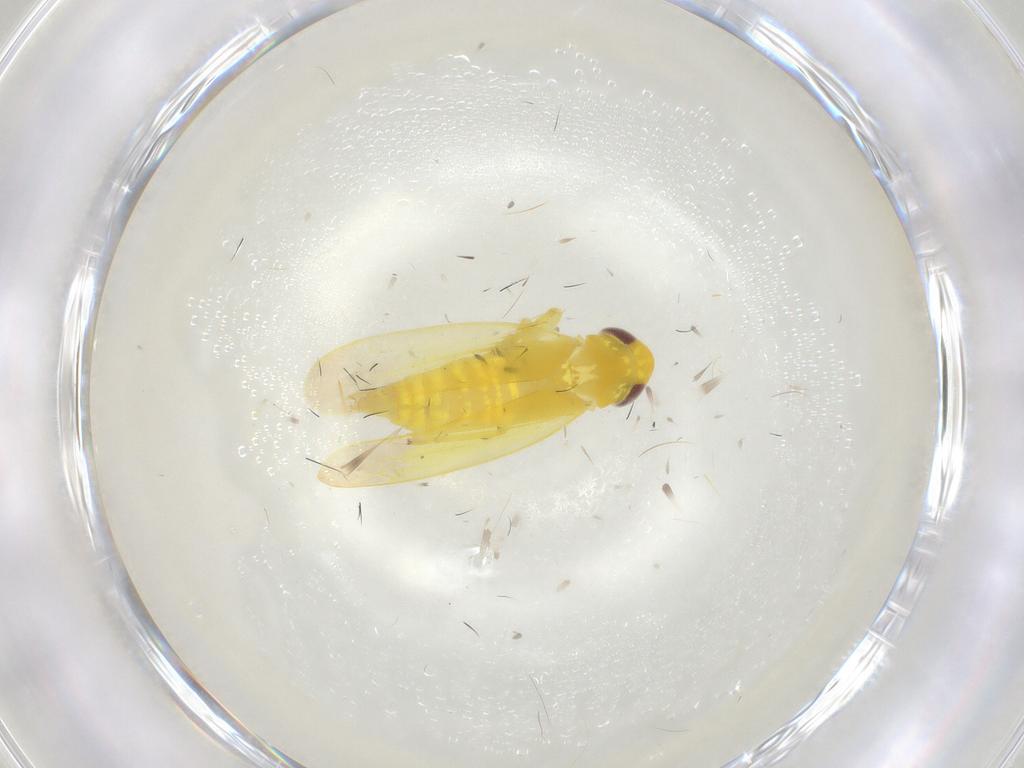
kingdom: Animalia
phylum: Arthropoda
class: Insecta
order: Hemiptera
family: Cicadellidae
